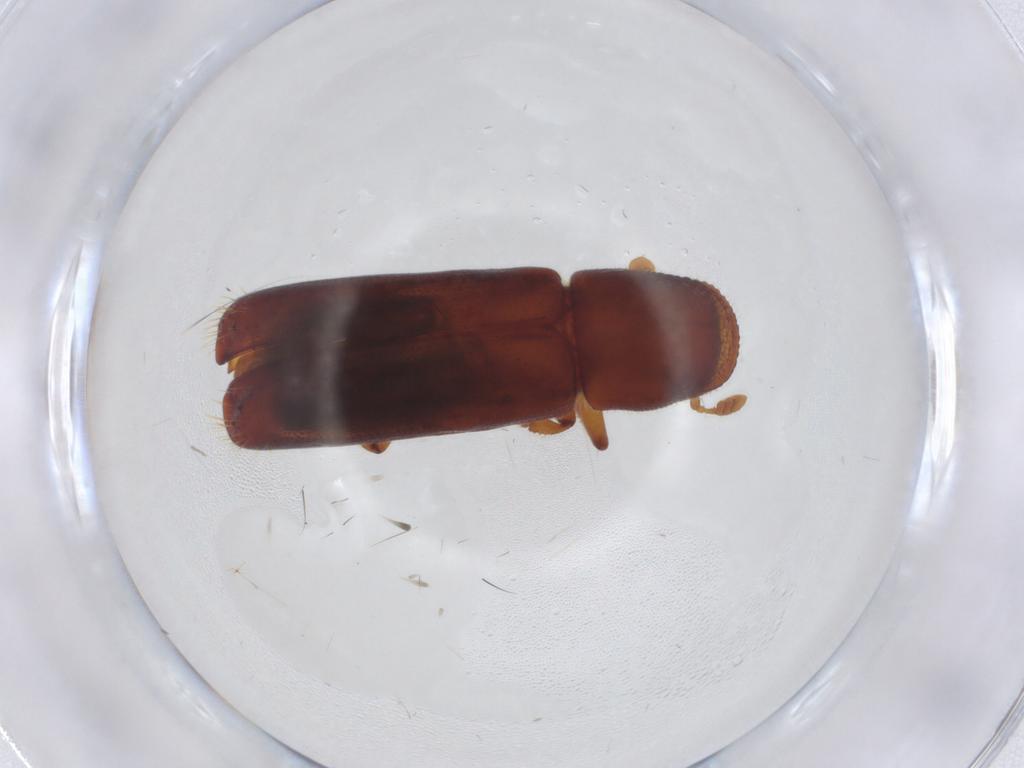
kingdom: Animalia
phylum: Arthropoda
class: Insecta
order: Coleoptera
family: Curculionidae
